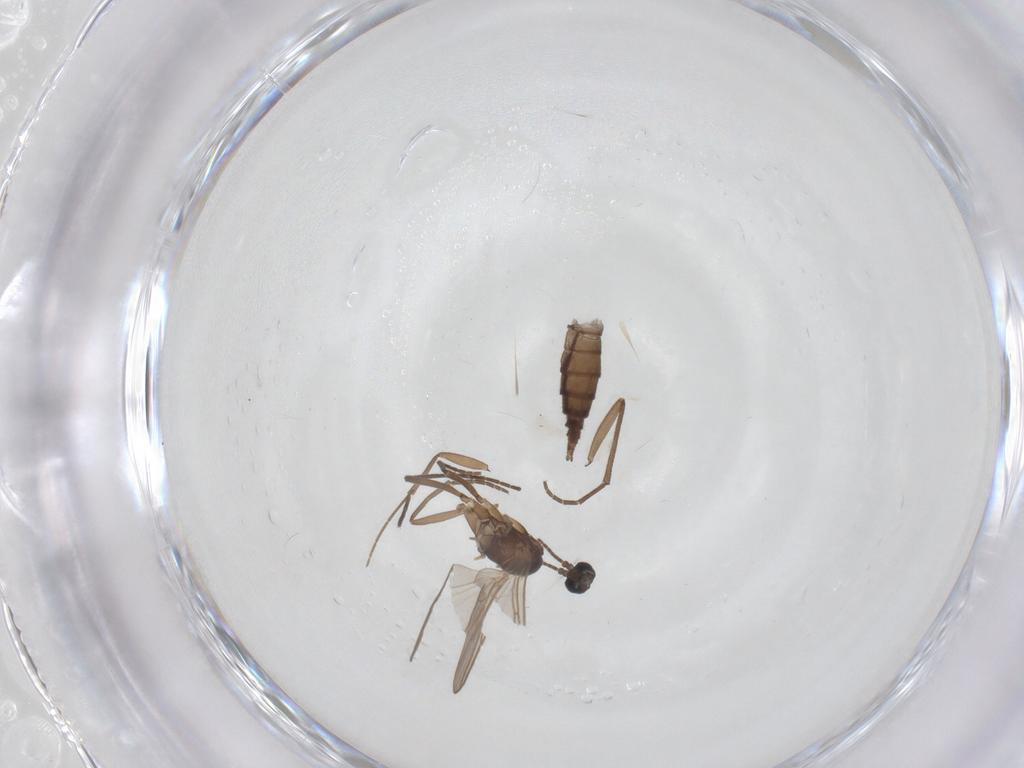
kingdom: Animalia
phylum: Arthropoda
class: Insecta
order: Diptera
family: Sciaridae
